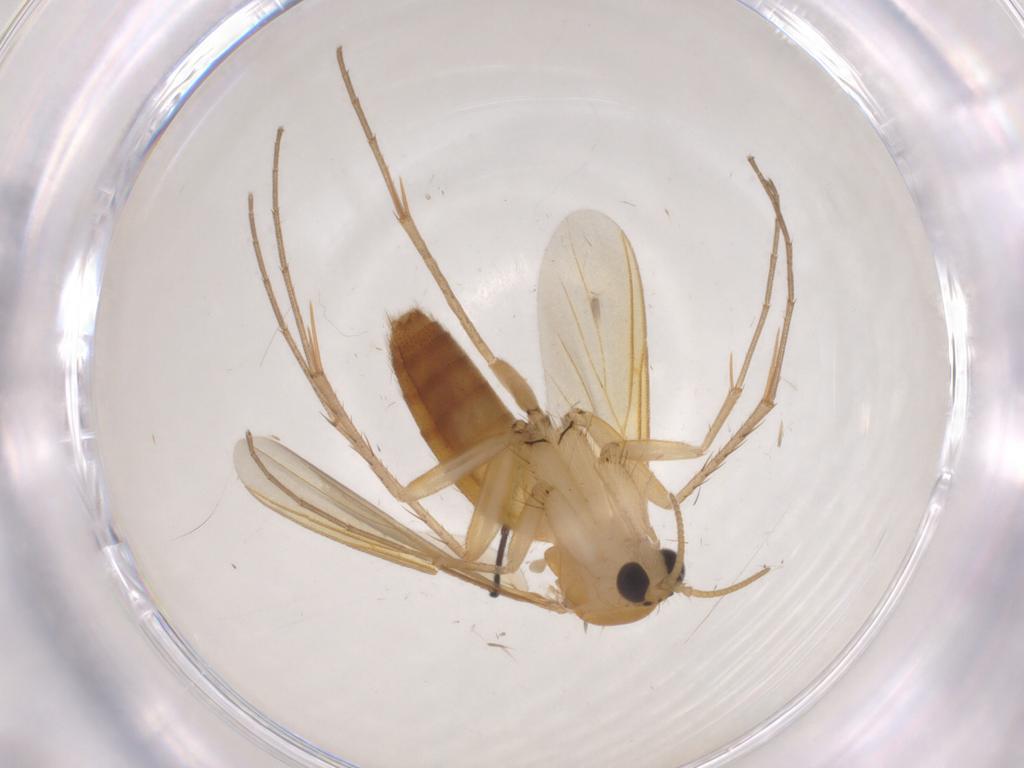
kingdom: Animalia
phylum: Arthropoda
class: Insecta
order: Diptera
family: Mycetophilidae
